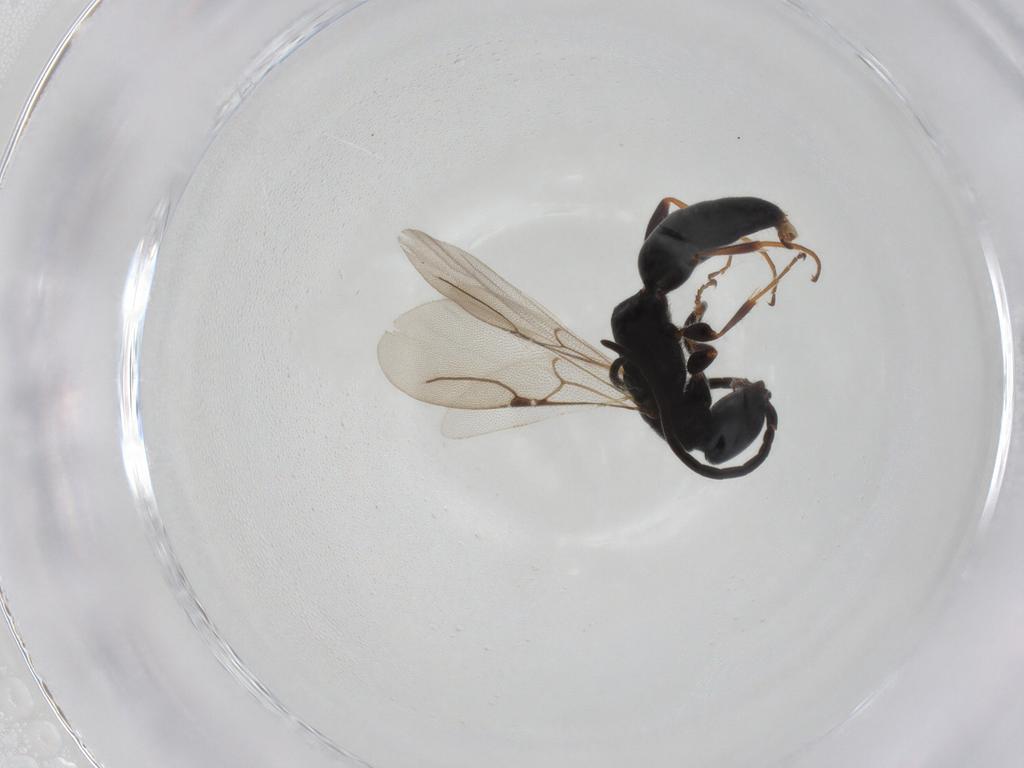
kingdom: Animalia
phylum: Arthropoda
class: Insecta
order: Hymenoptera
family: Bethylidae
